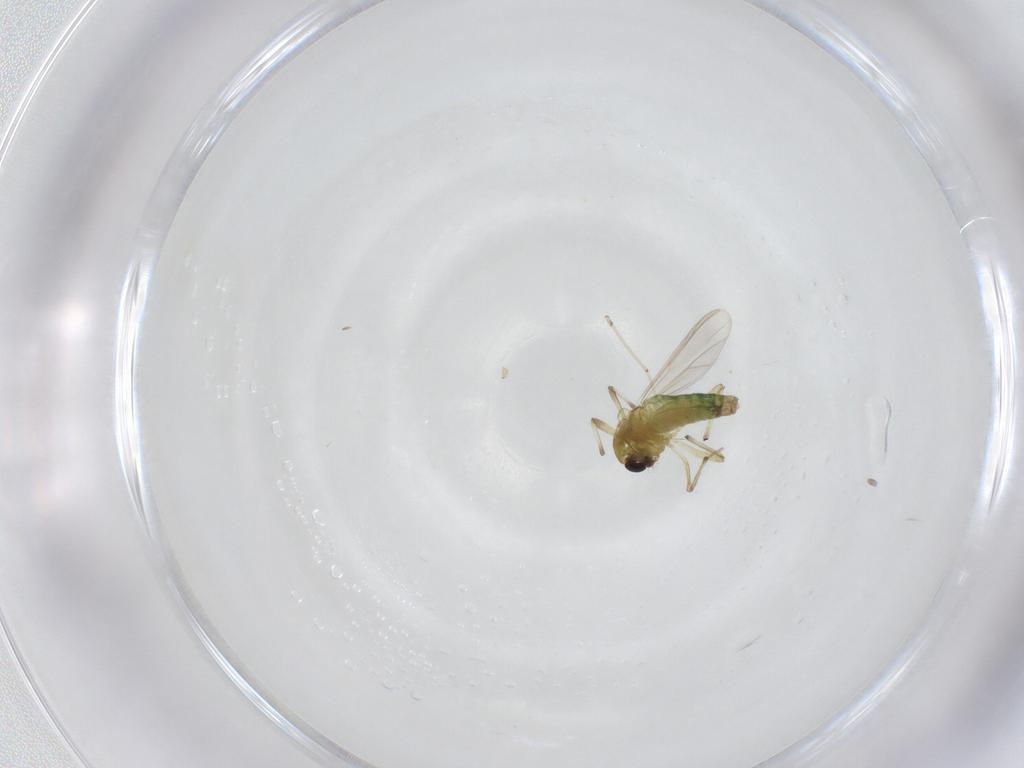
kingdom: Animalia
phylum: Arthropoda
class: Insecta
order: Diptera
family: Chironomidae
